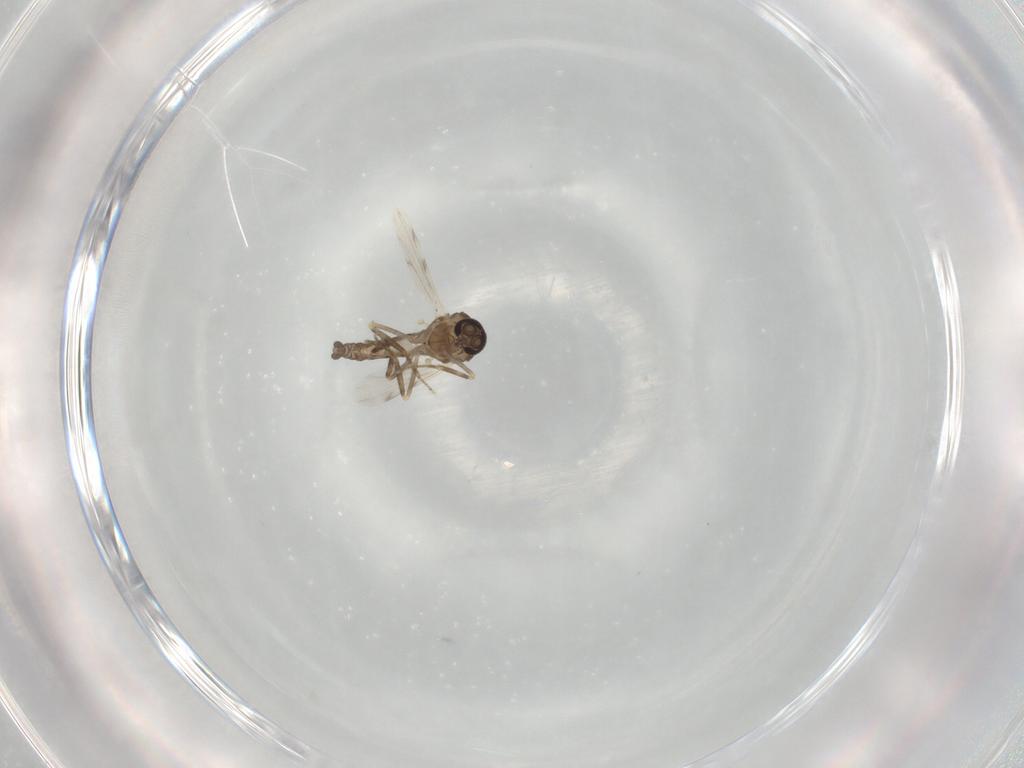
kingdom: Animalia
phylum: Arthropoda
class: Insecta
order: Diptera
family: Ceratopogonidae
